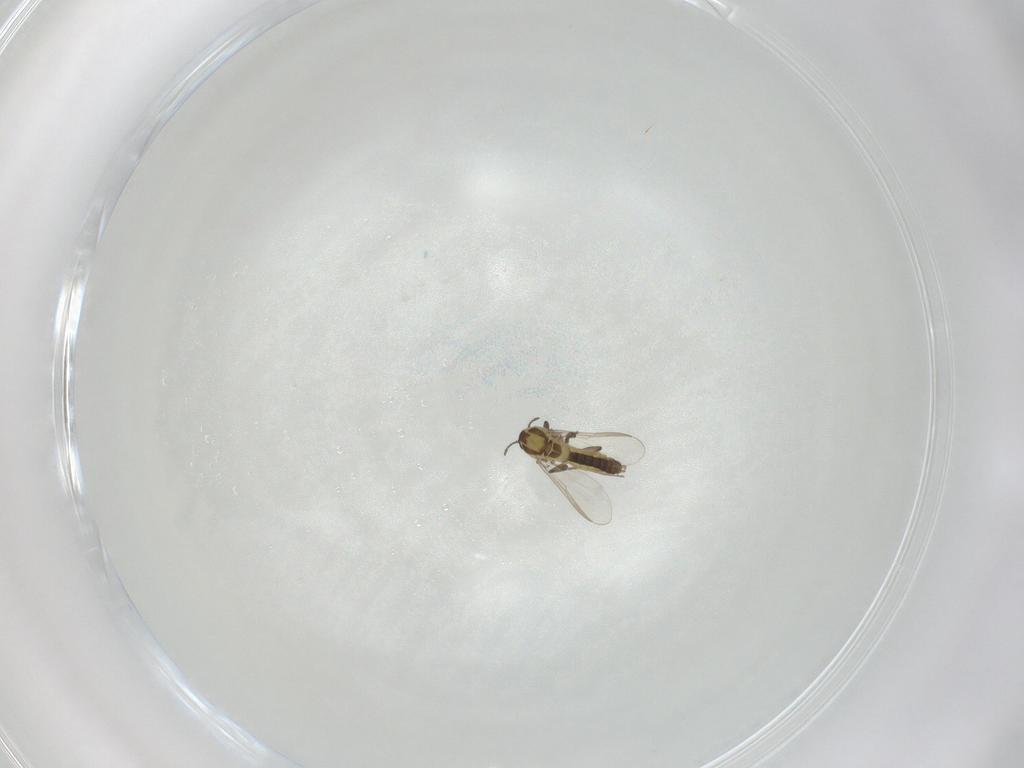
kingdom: Animalia
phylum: Arthropoda
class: Insecta
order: Diptera
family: Chironomidae
